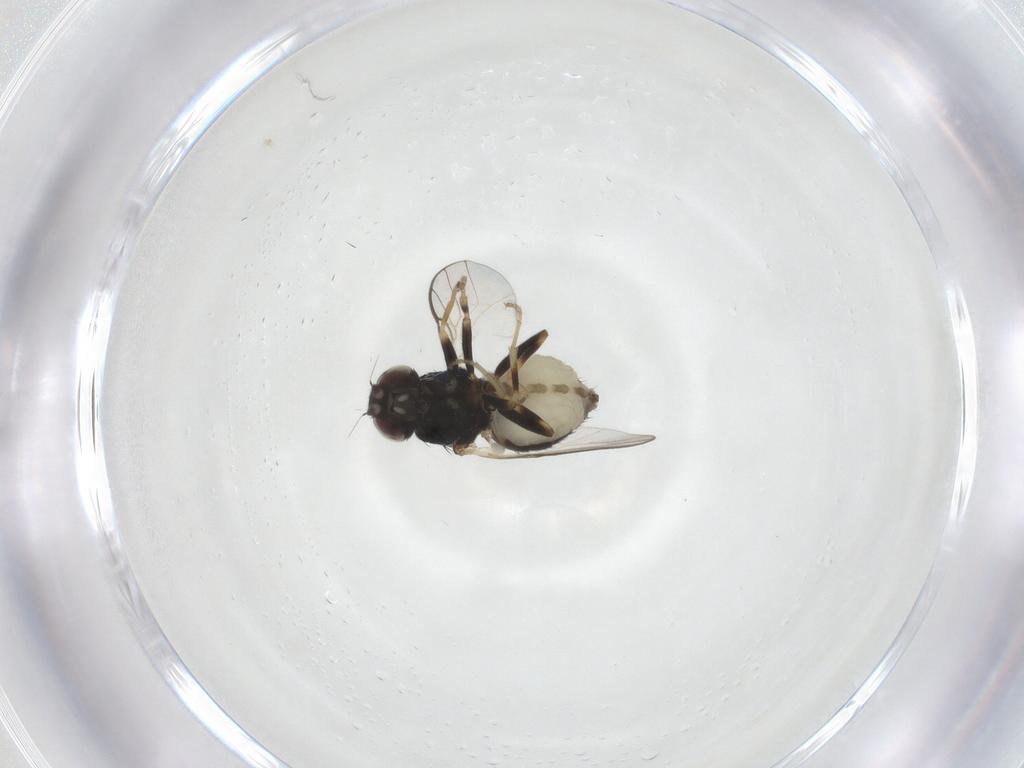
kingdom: Animalia
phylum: Arthropoda
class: Insecta
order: Diptera
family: Chloropidae
